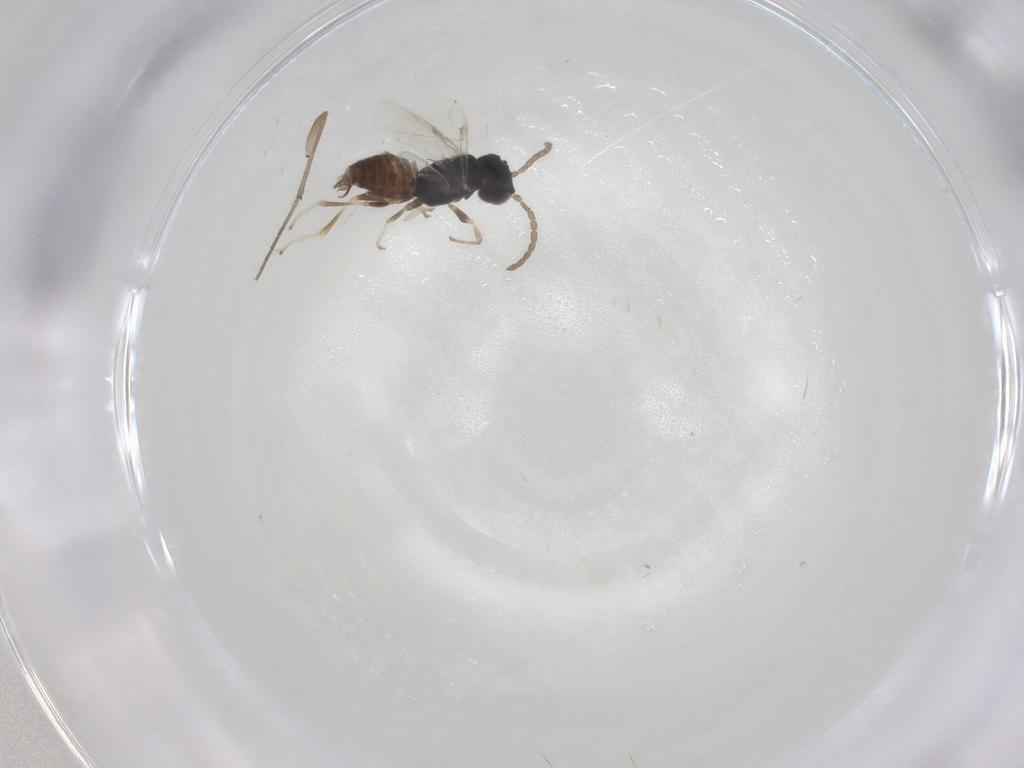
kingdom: Animalia
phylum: Arthropoda
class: Insecta
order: Hymenoptera
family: Dryinidae
